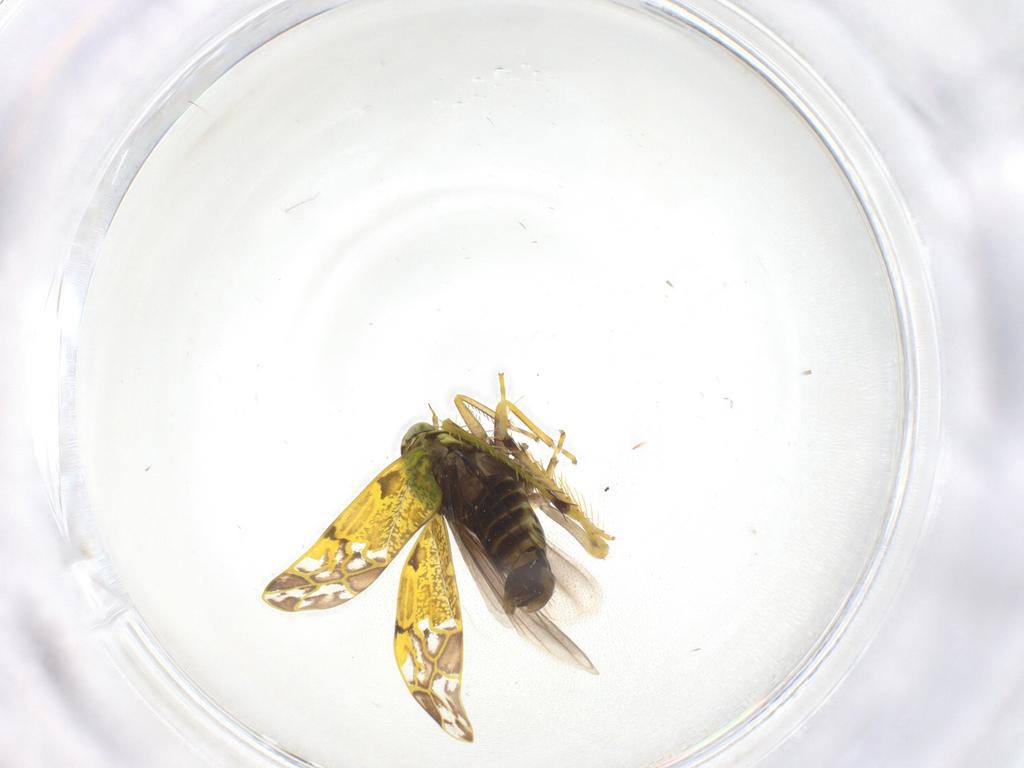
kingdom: Animalia
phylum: Arthropoda
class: Insecta
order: Hemiptera
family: Cicadellidae
